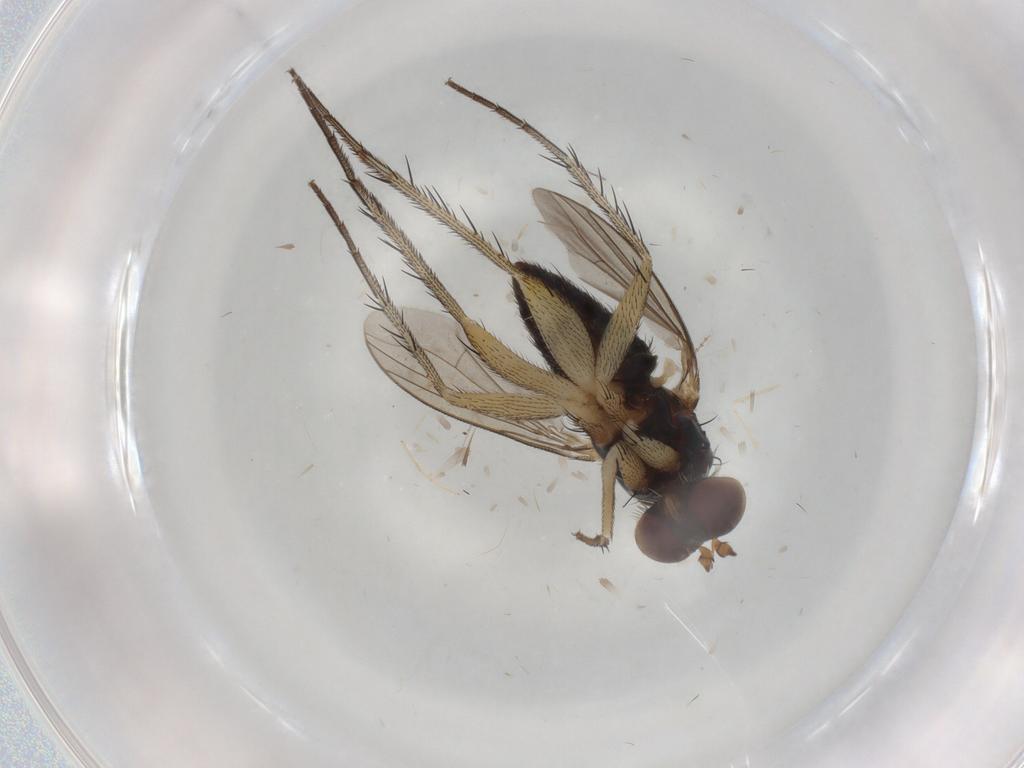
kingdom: Animalia
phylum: Arthropoda
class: Insecta
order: Diptera
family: Dolichopodidae
